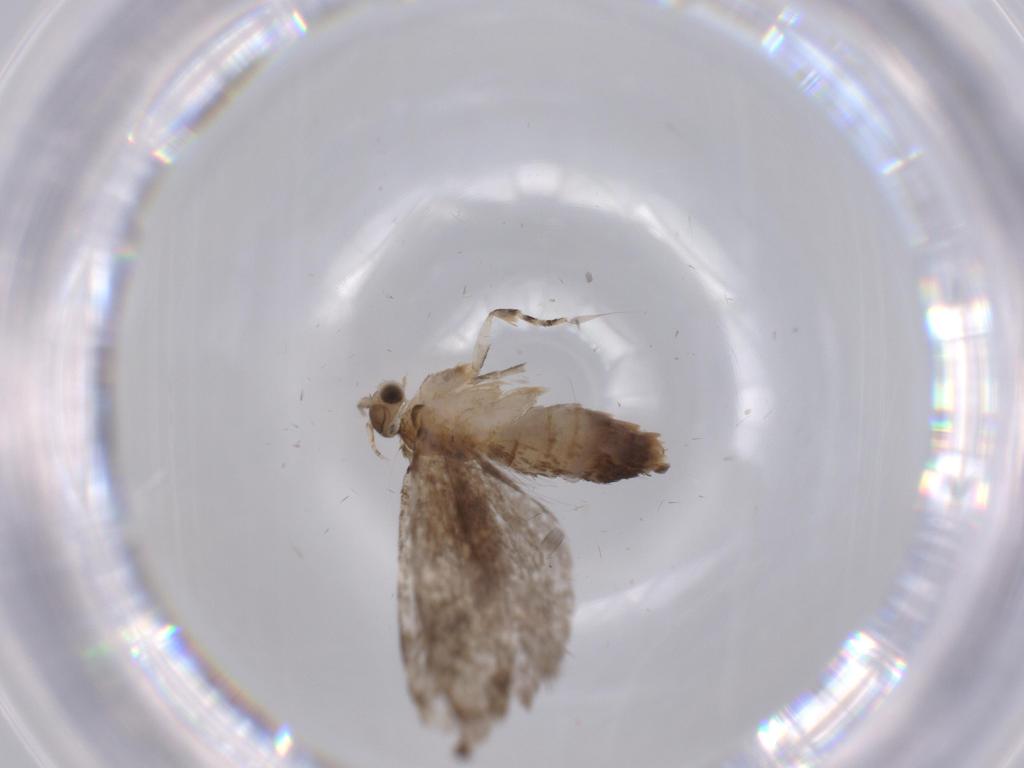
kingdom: Animalia
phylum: Arthropoda
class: Insecta
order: Lepidoptera
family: Tineidae
